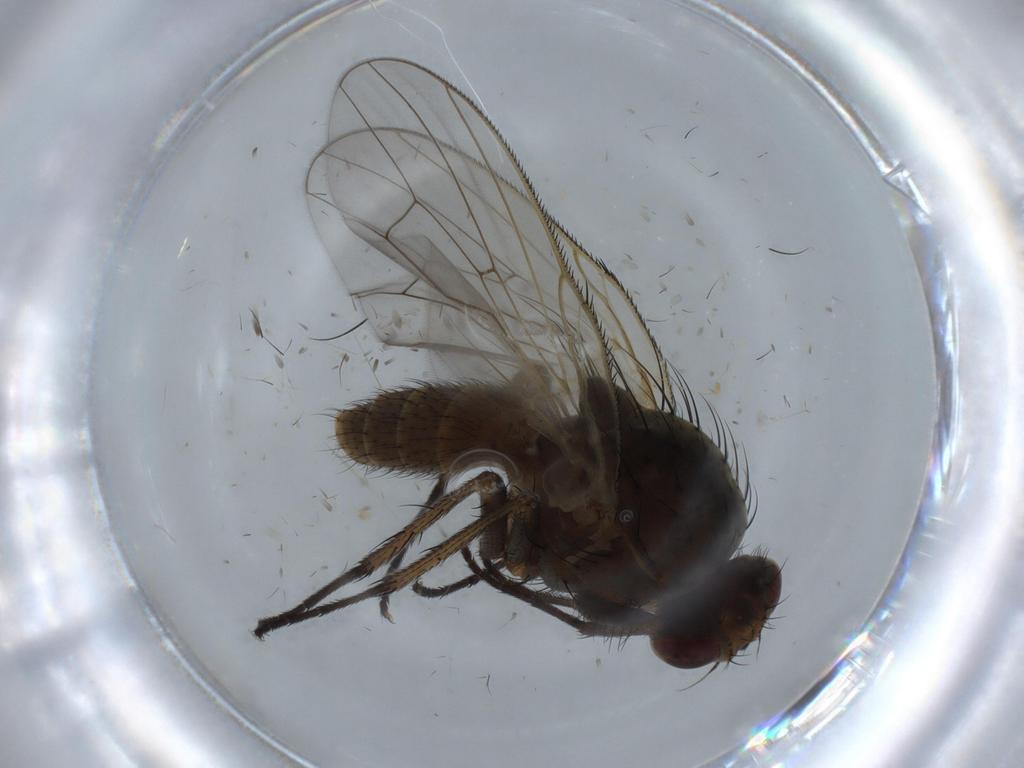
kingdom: Animalia
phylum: Arthropoda
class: Insecta
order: Diptera
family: Anthomyiidae
